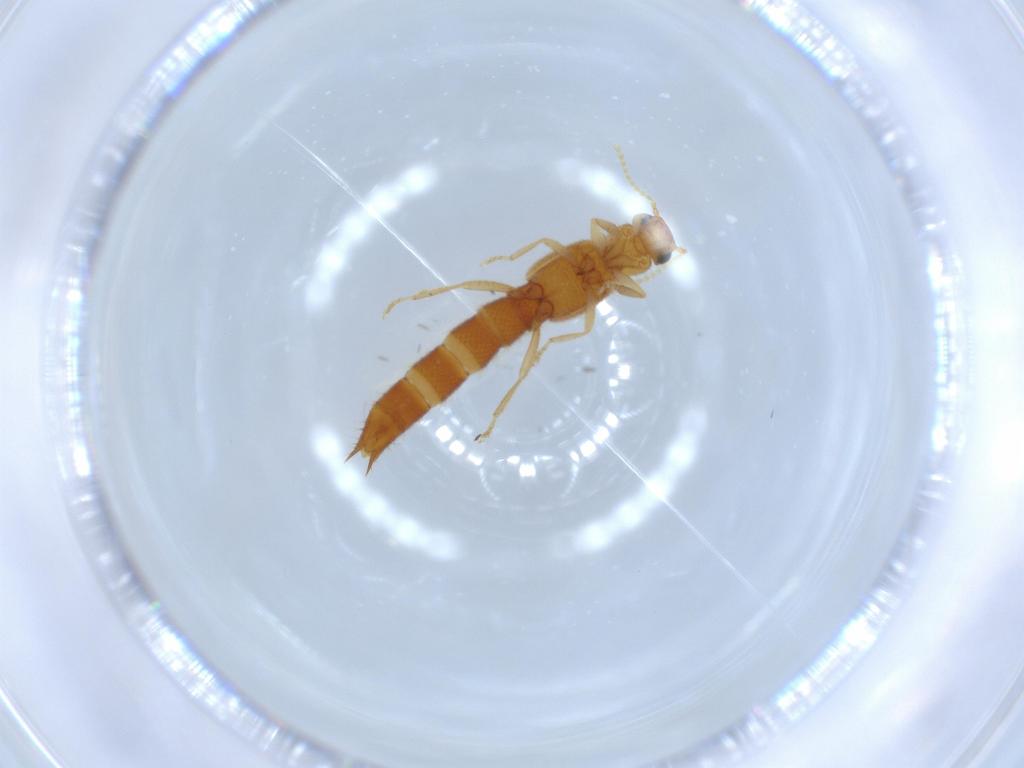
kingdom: Animalia
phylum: Arthropoda
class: Insecta
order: Coleoptera
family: Staphylinidae
